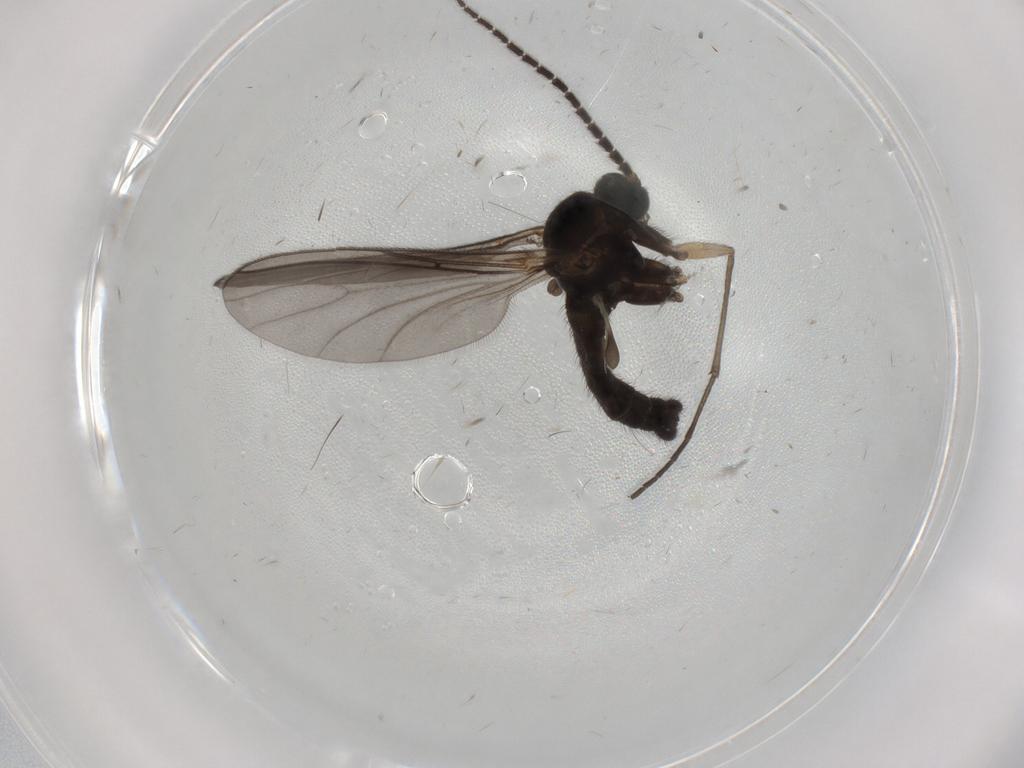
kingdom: Animalia
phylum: Arthropoda
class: Insecta
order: Diptera
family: Sciaridae
